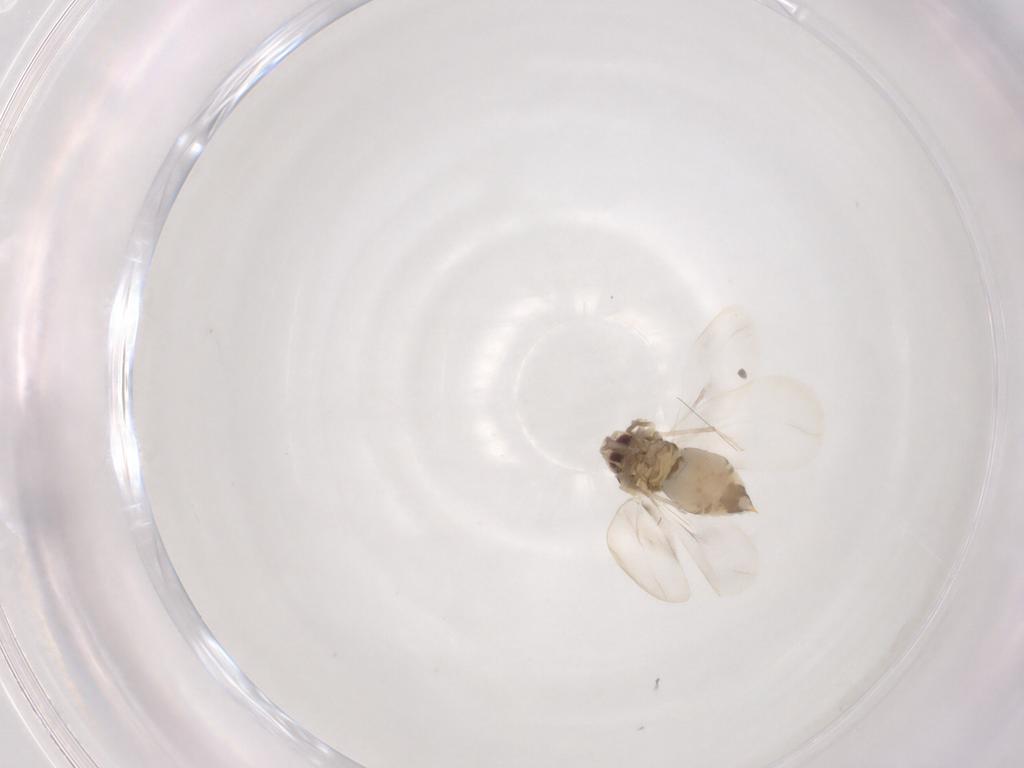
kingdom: Animalia
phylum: Arthropoda
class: Insecta
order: Hemiptera
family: Aleyrodidae
